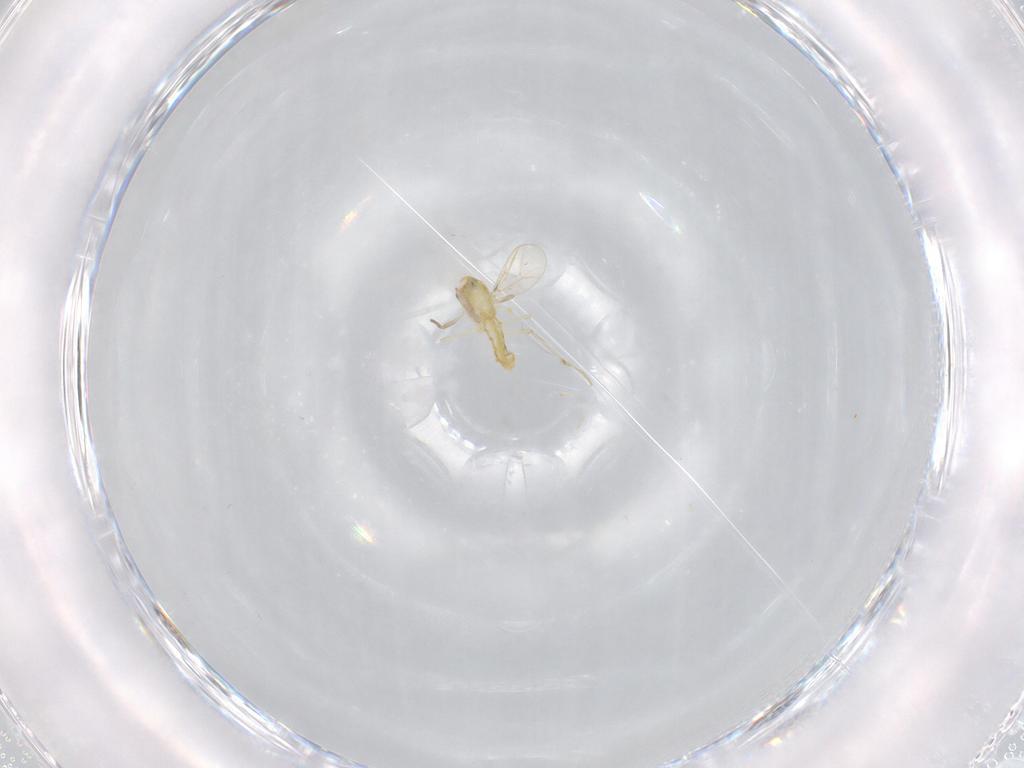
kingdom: Animalia
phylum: Arthropoda
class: Insecta
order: Diptera
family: Chironomidae
